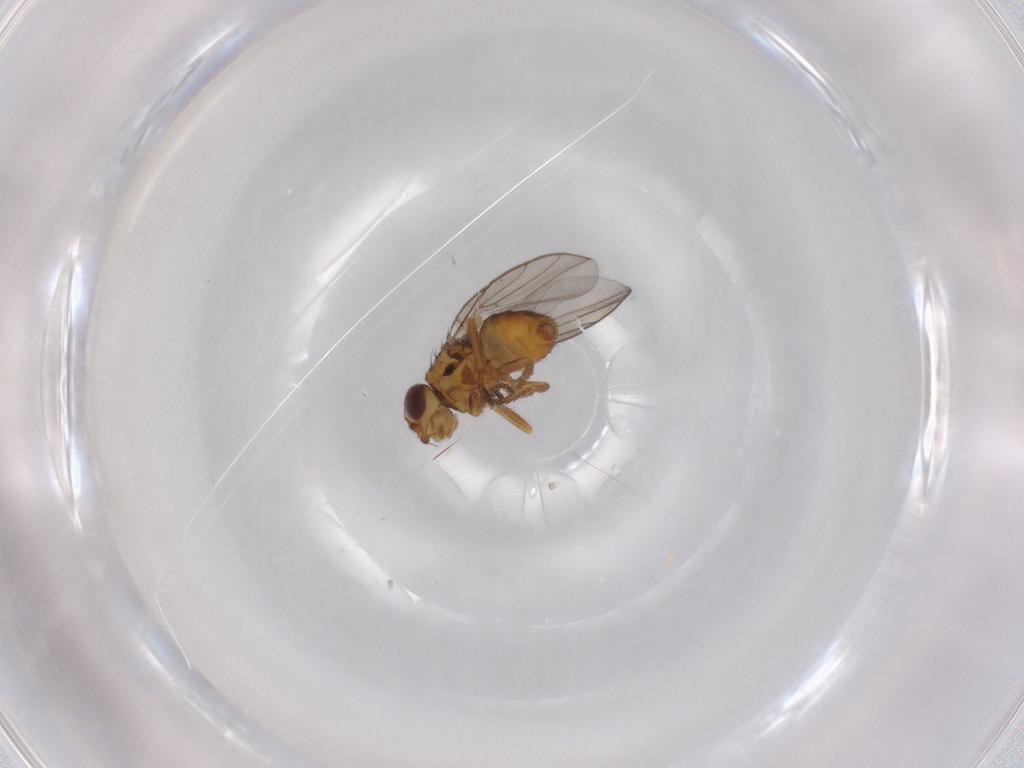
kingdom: Animalia
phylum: Arthropoda
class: Insecta
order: Diptera
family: Chloropidae
